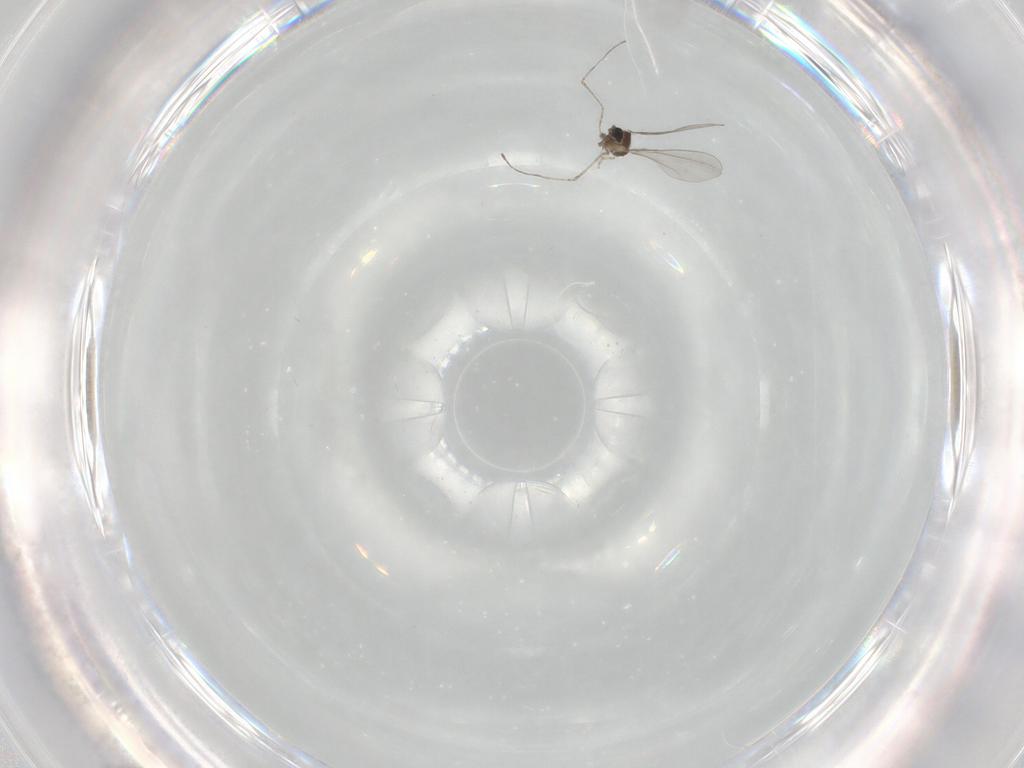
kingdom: Animalia
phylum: Arthropoda
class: Insecta
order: Diptera
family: Cecidomyiidae
